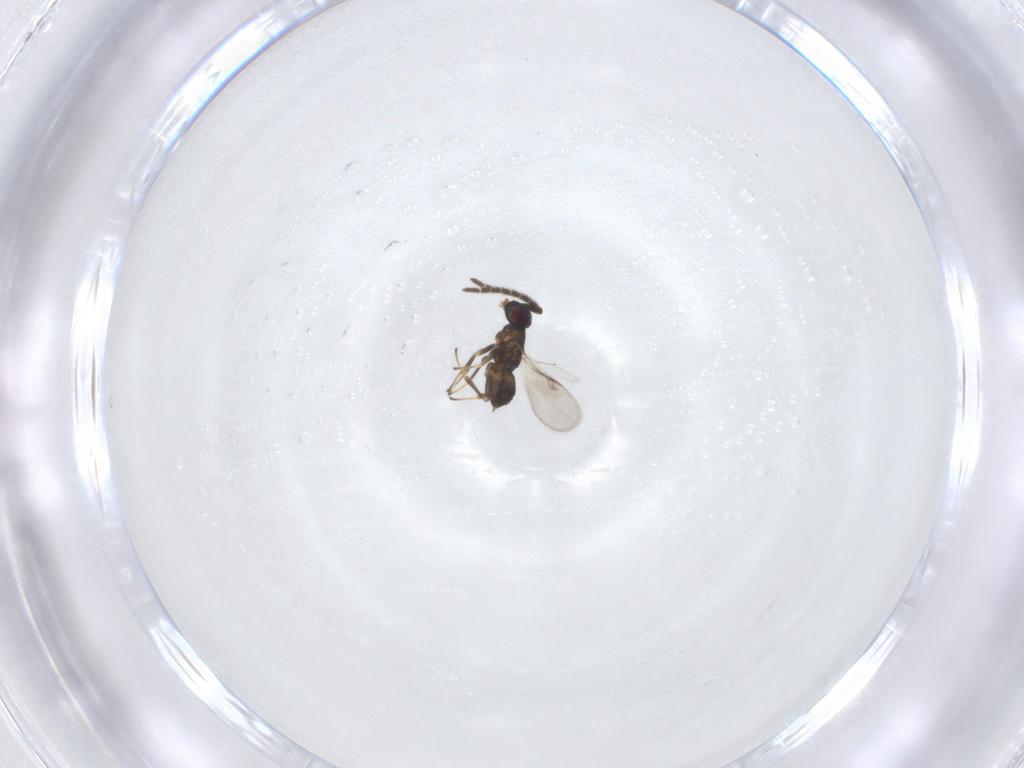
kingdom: Animalia
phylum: Arthropoda
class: Insecta
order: Hymenoptera
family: Encyrtidae
